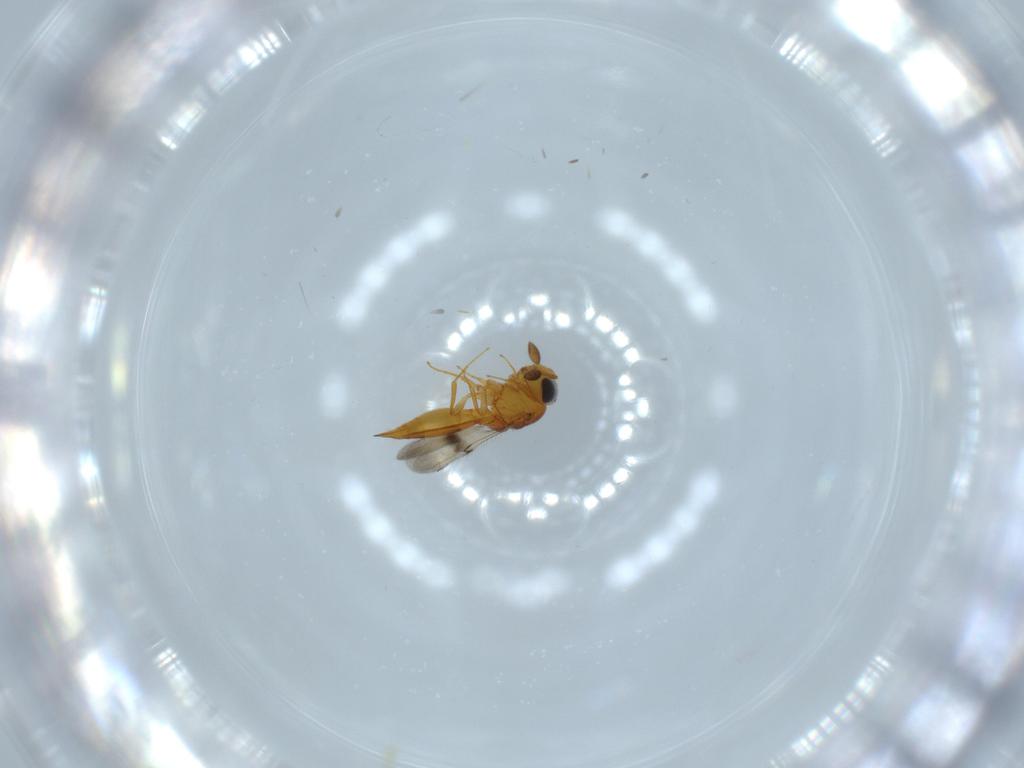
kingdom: Animalia
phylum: Arthropoda
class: Insecta
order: Hymenoptera
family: Scelionidae
